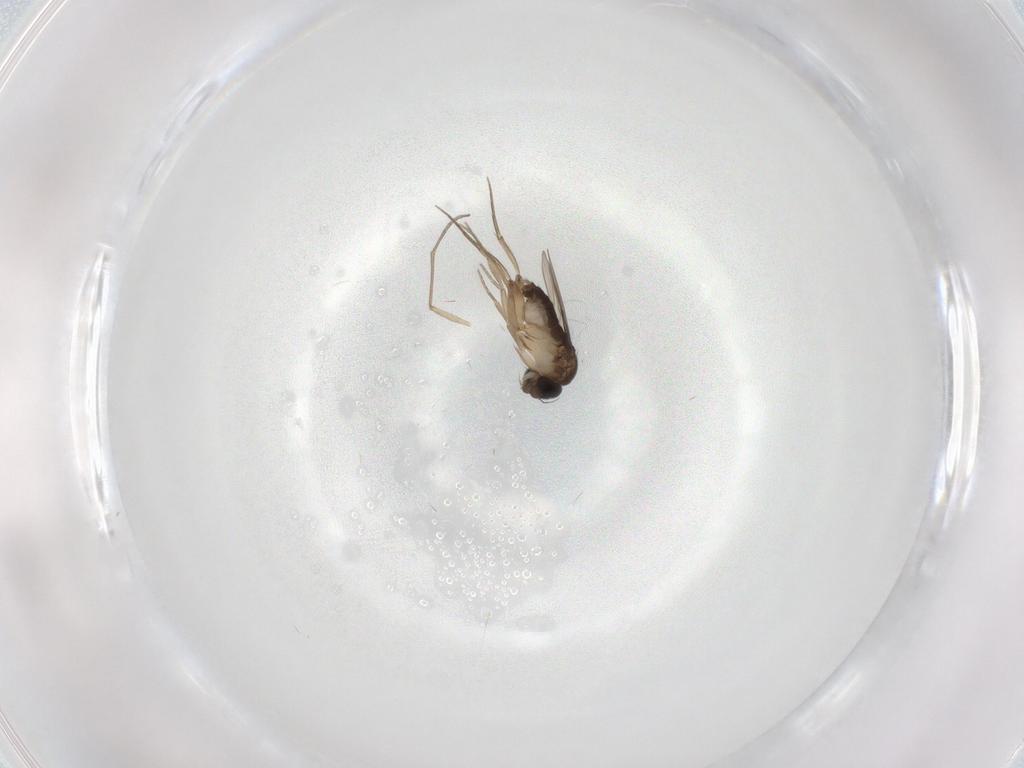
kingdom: Animalia
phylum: Arthropoda
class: Insecta
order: Diptera
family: Phoridae
